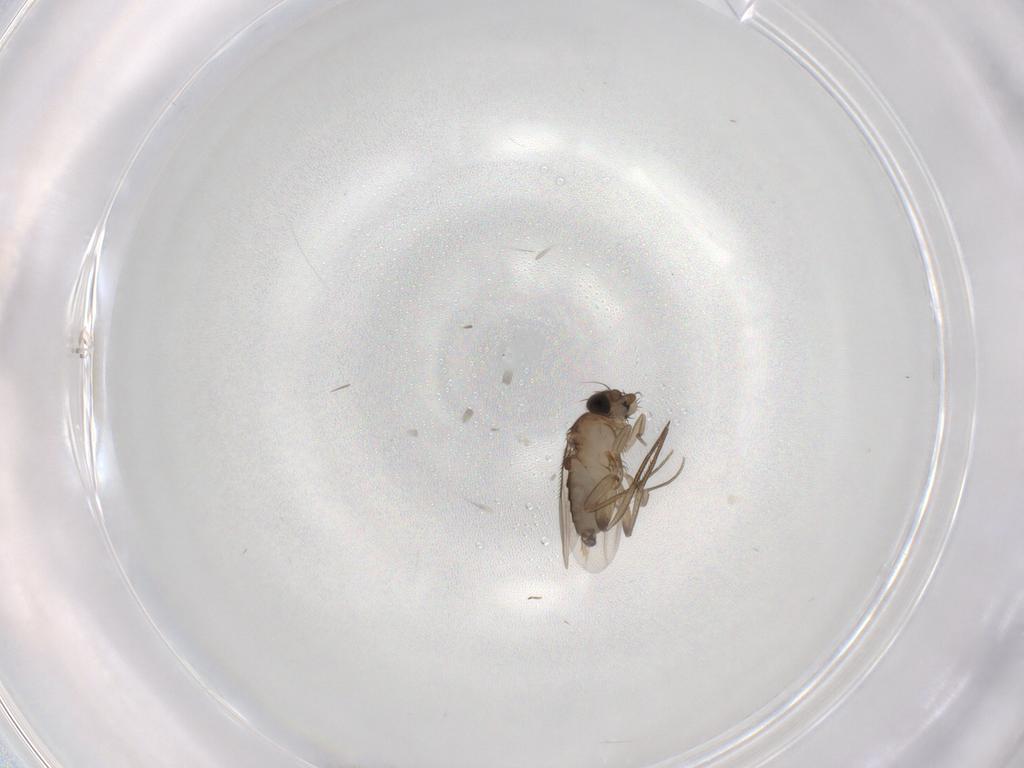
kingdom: Animalia
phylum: Arthropoda
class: Insecta
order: Diptera
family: Phoridae
